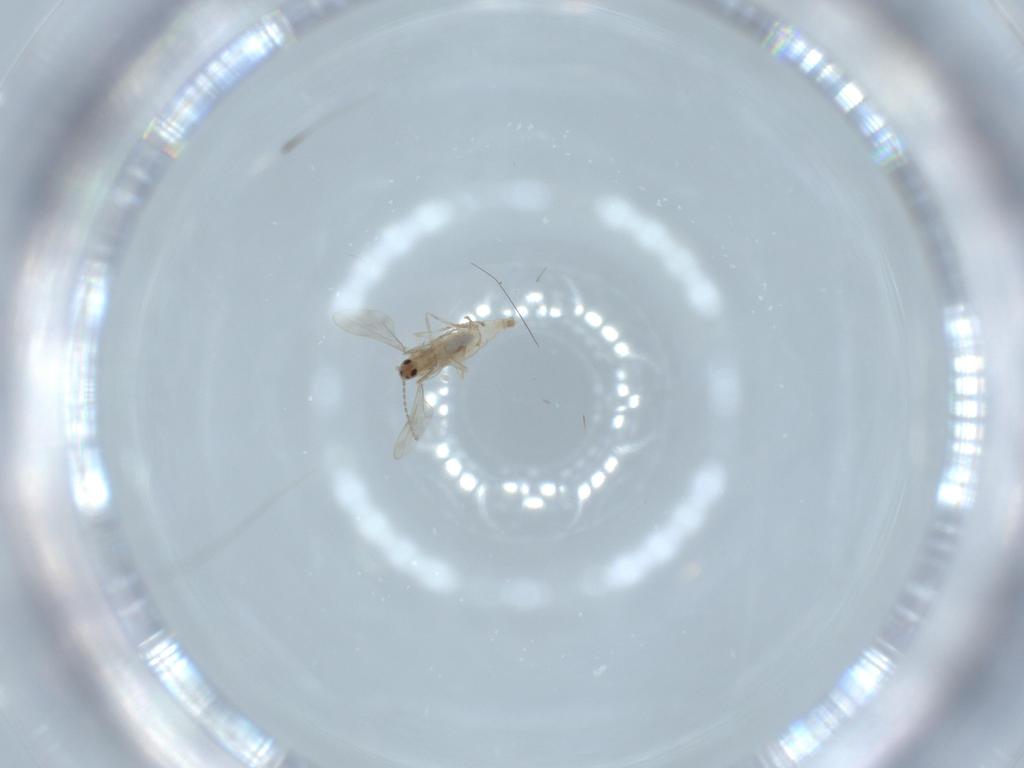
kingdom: Animalia
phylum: Arthropoda
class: Insecta
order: Diptera
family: Cecidomyiidae
